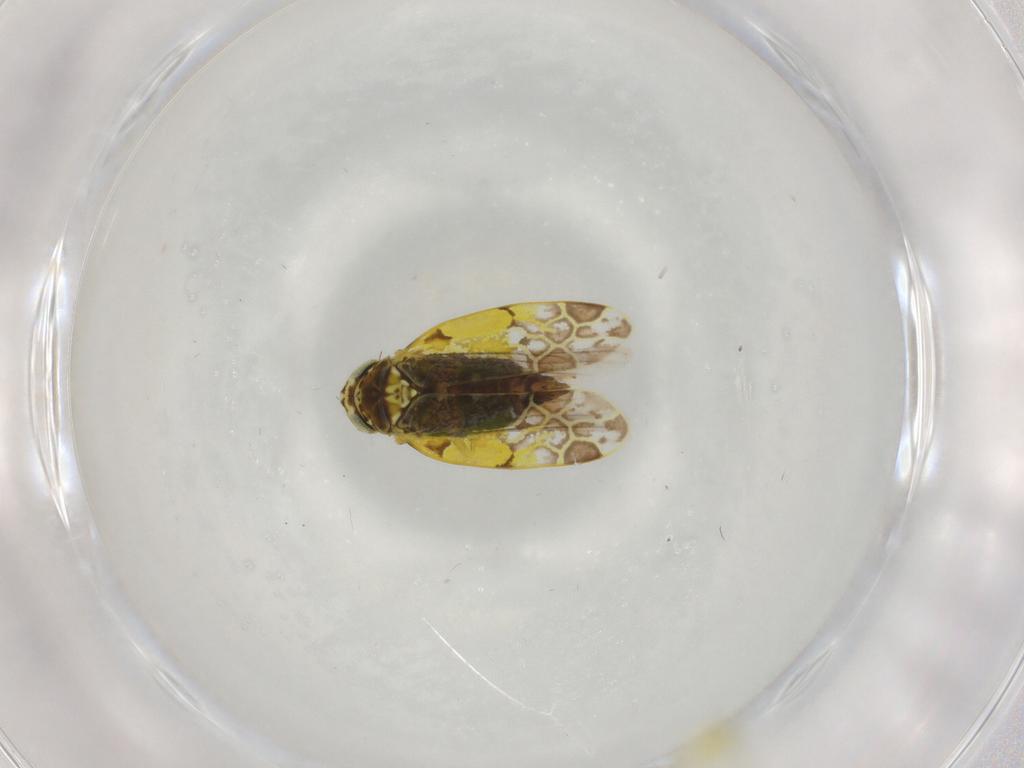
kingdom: Animalia
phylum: Arthropoda
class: Insecta
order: Hemiptera
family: Cicadellidae
